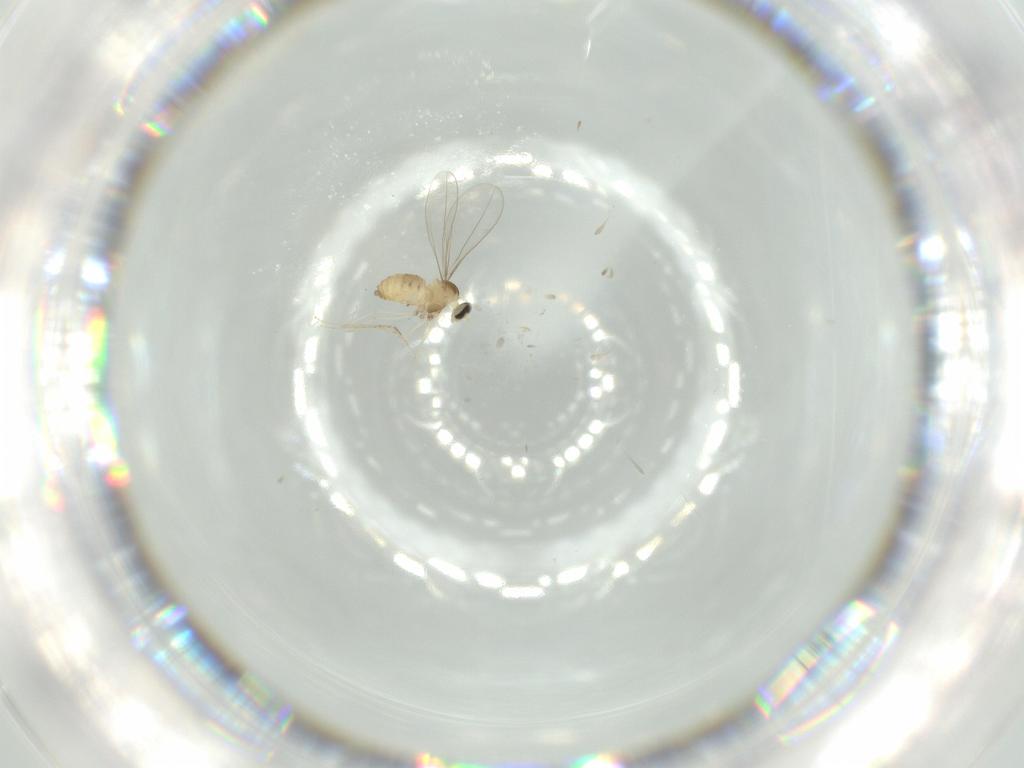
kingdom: Animalia
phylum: Arthropoda
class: Insecta
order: Diptera
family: Cecidomyiidae
